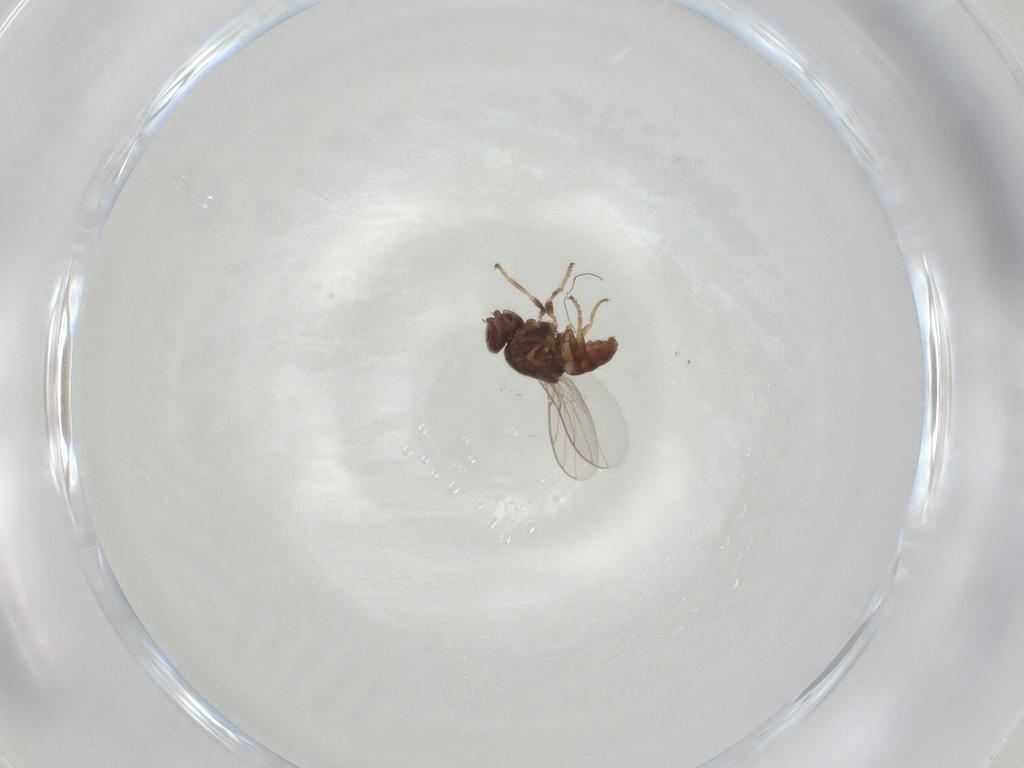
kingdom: Animalia
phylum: Arthropoda
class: Insecta
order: Diptera
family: Chloropidae
